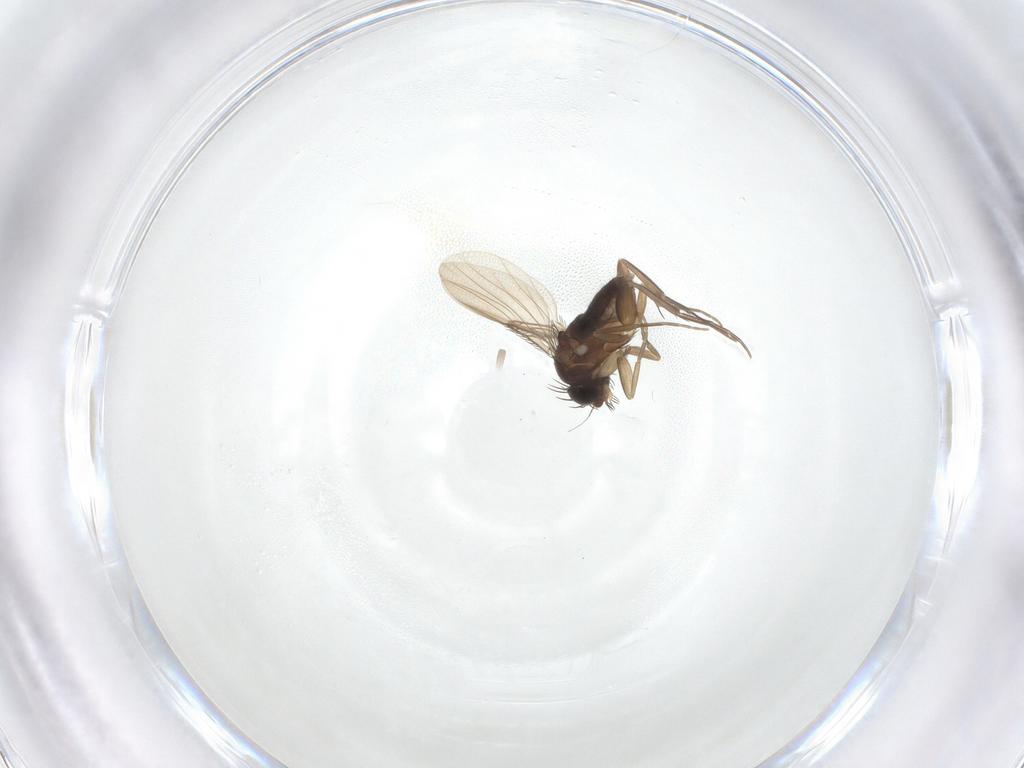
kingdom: Animalia
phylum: Arthropoda
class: Insecta
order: Diptera
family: Phoridae
